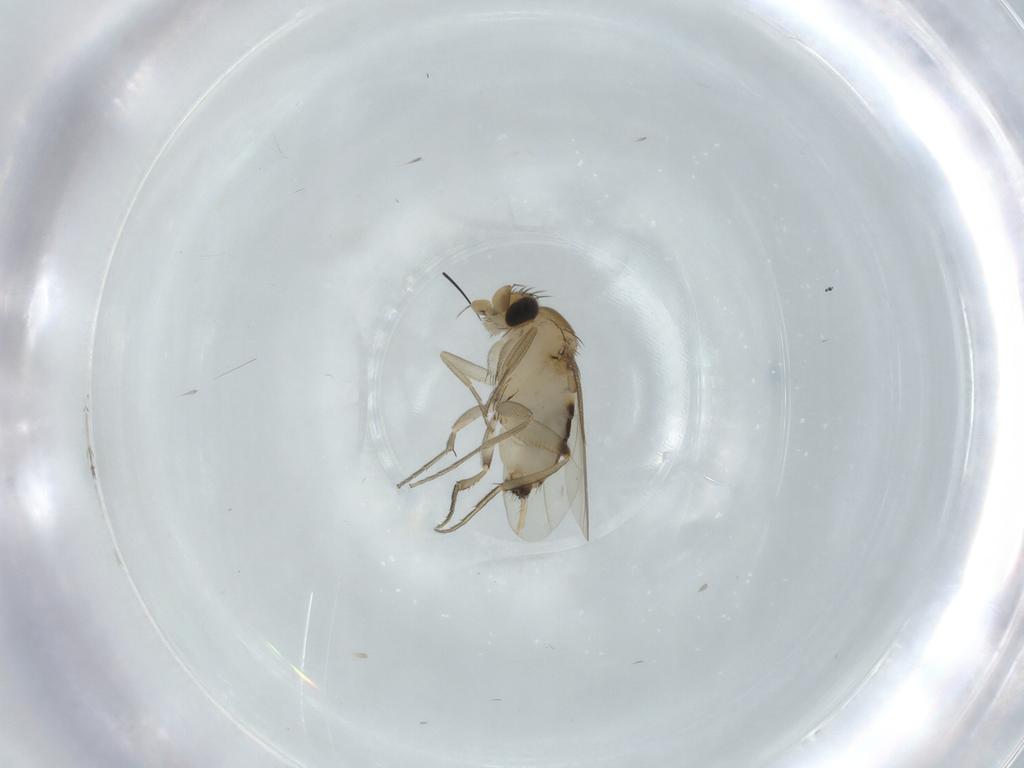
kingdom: Animalia
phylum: Arthropoda
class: Insecta
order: Diptera
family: Phoridae
